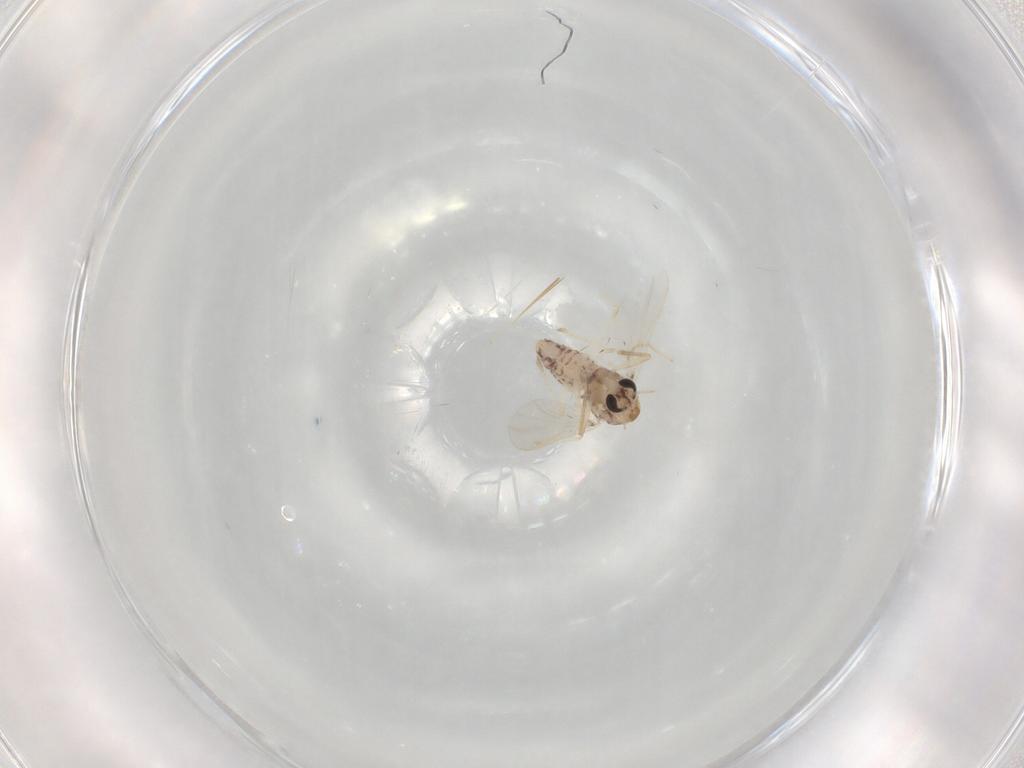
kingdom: Animalia
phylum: Arthropoda
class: Insecta
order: Diptera
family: Chironomidae
